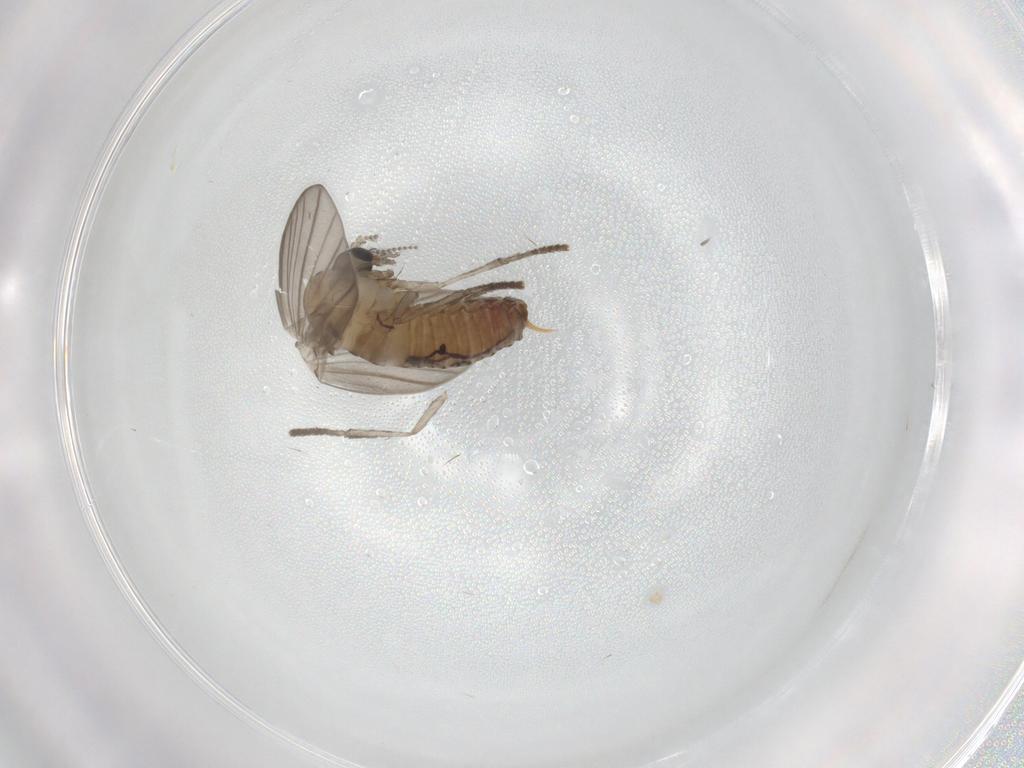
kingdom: Animalia
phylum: Arthropoda
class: Insecta
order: Diptera
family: Psychodidae
